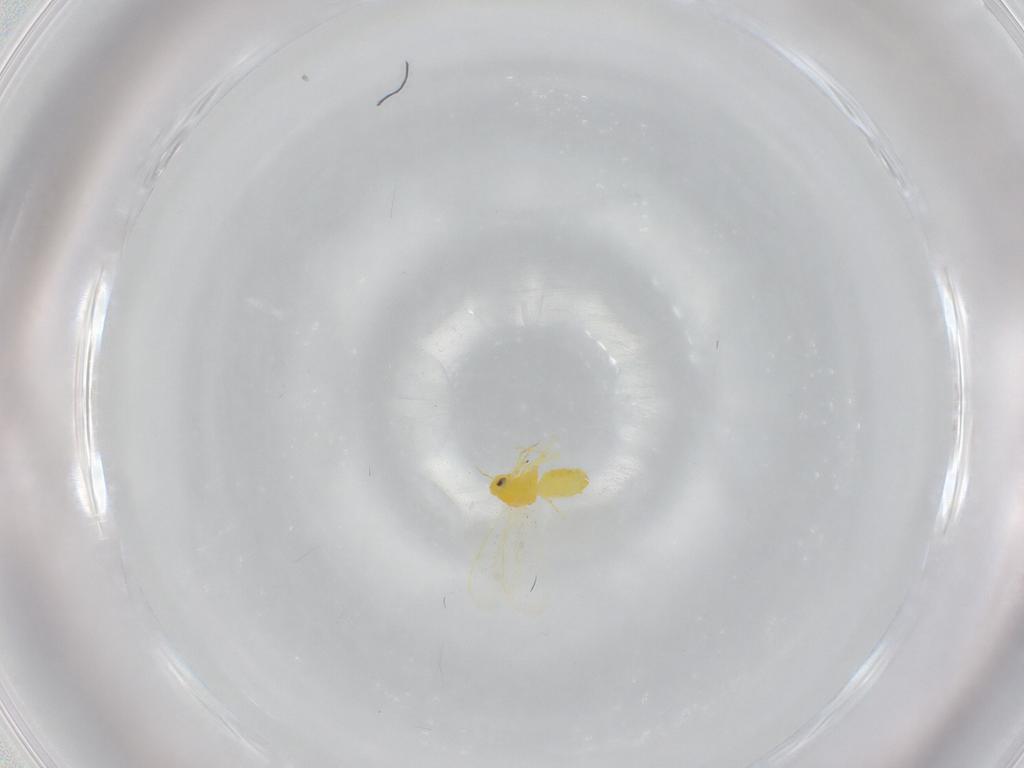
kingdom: Animalia
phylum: Arthropoda
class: Insecta
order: Hemiptera
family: Aleyrodidae
